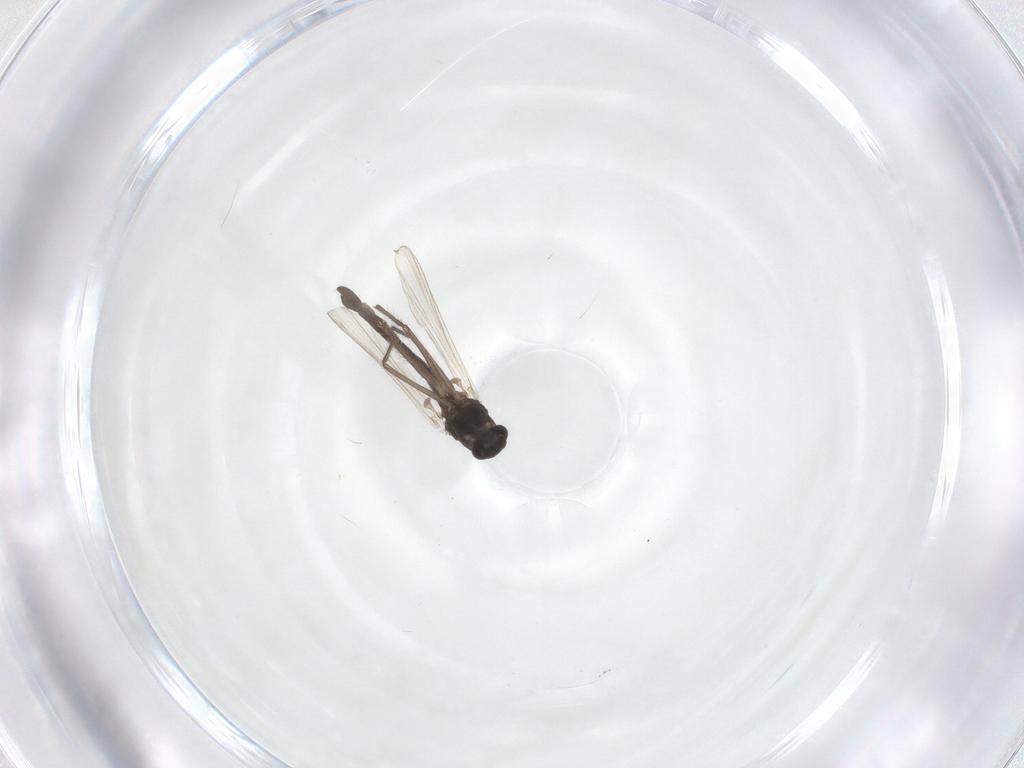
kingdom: Animalia
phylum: Arthropoda
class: Insecta
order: Diptera
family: Chironomidae
